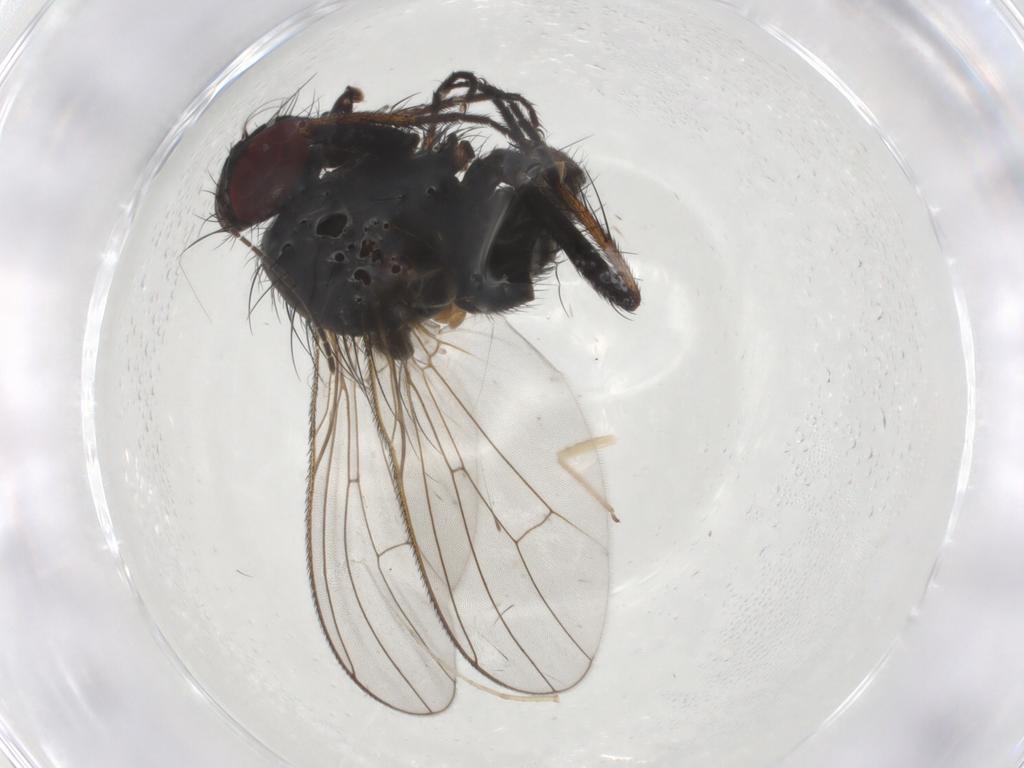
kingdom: Animalia
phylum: Arthropoda
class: Insecta
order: Diptera
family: Sciaridae
